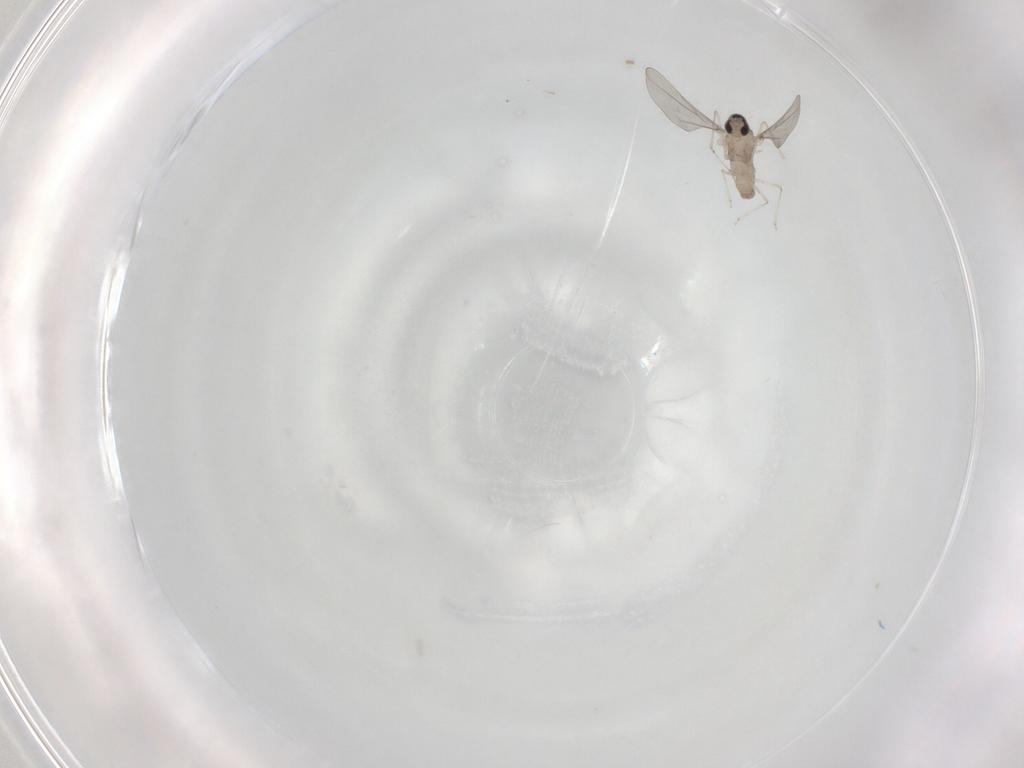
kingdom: Animalia
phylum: Arthropoda
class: Insecta
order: Diptera
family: Cecidomyiidae
